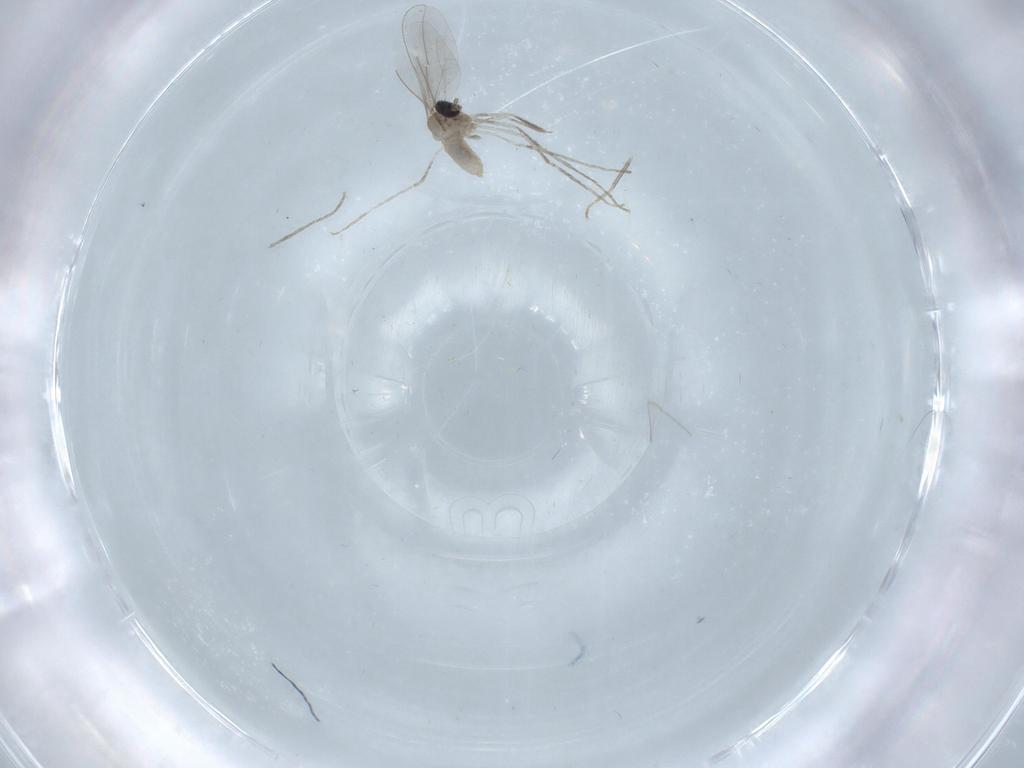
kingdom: Animalia
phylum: Arthropoda
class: Insecta
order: Diptera
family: Cecidomyiidae
